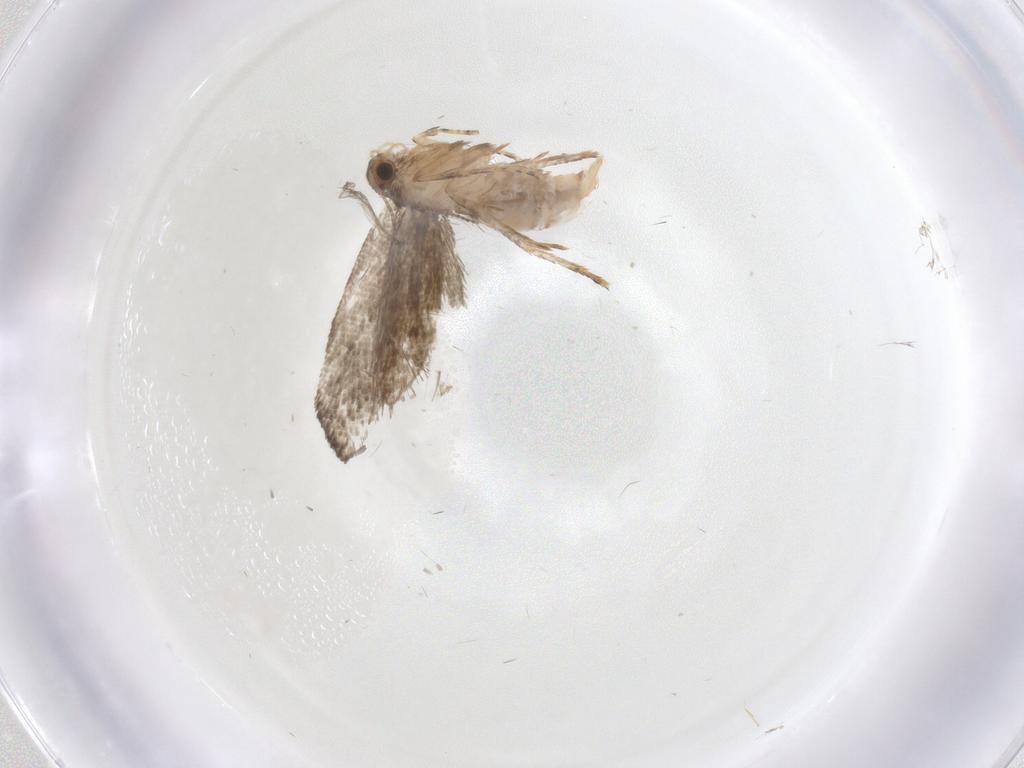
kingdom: Animalia
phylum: Arthropoda
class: Insecta
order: Lepidoptera
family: Tineidae
